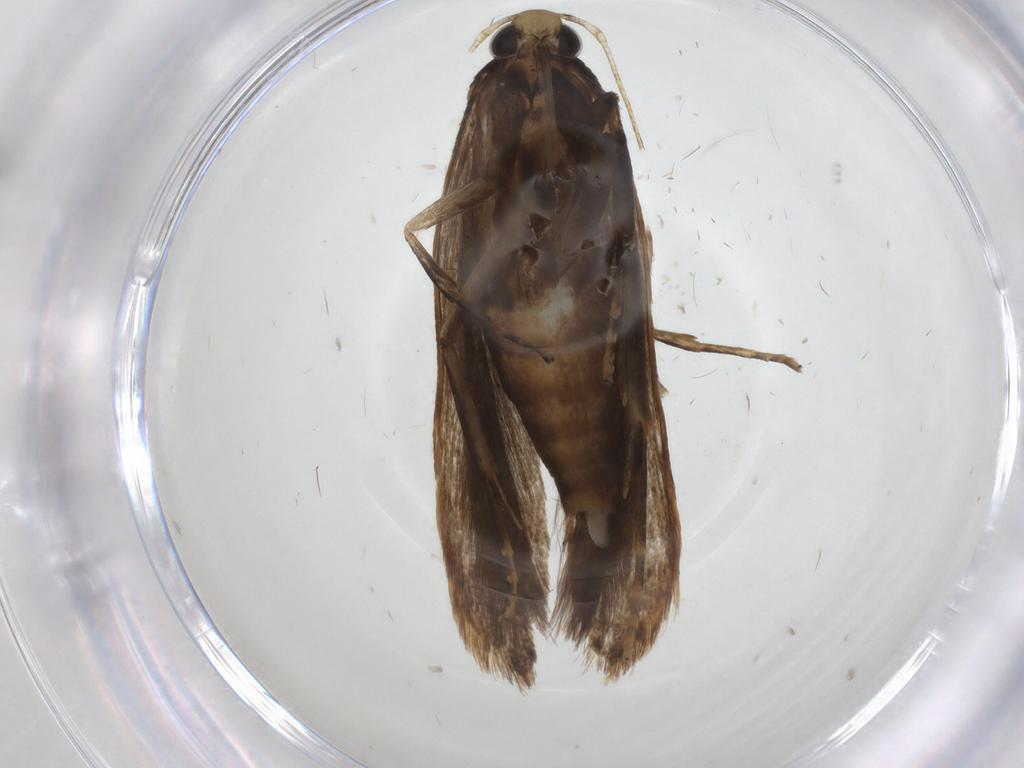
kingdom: Animalia
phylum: Arthropoda
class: Insecta
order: Lepidoptera
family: Gelechiidae
